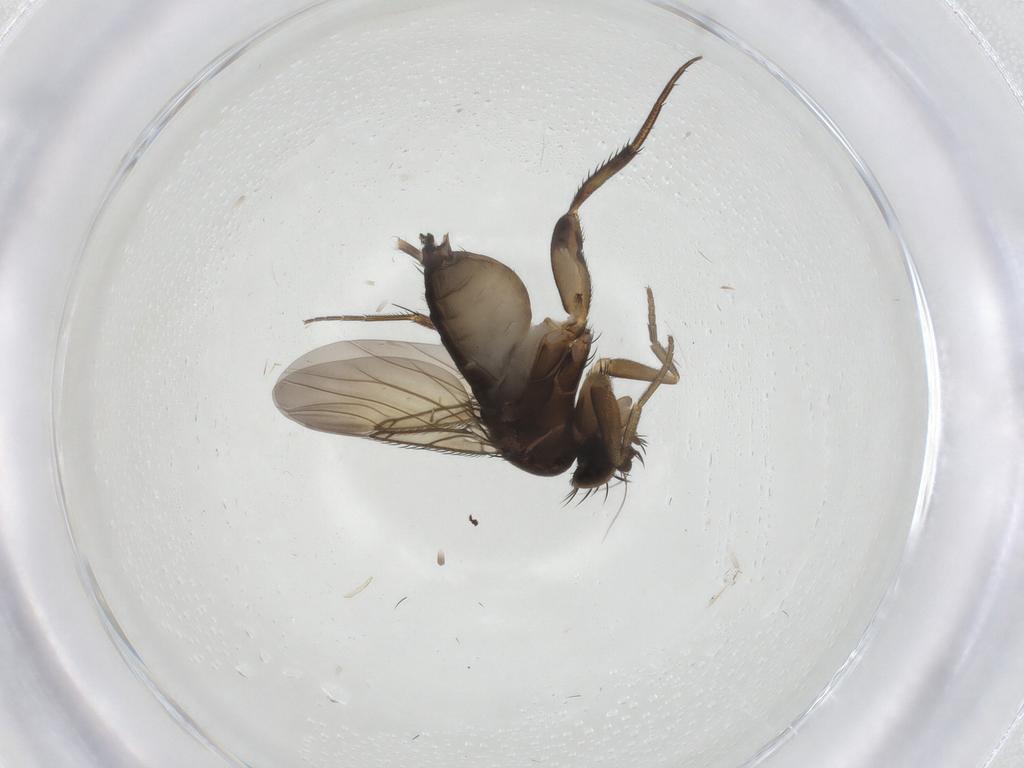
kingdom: Animalia
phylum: Arthropoda
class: Insecta
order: Diptera
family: Phoridae
